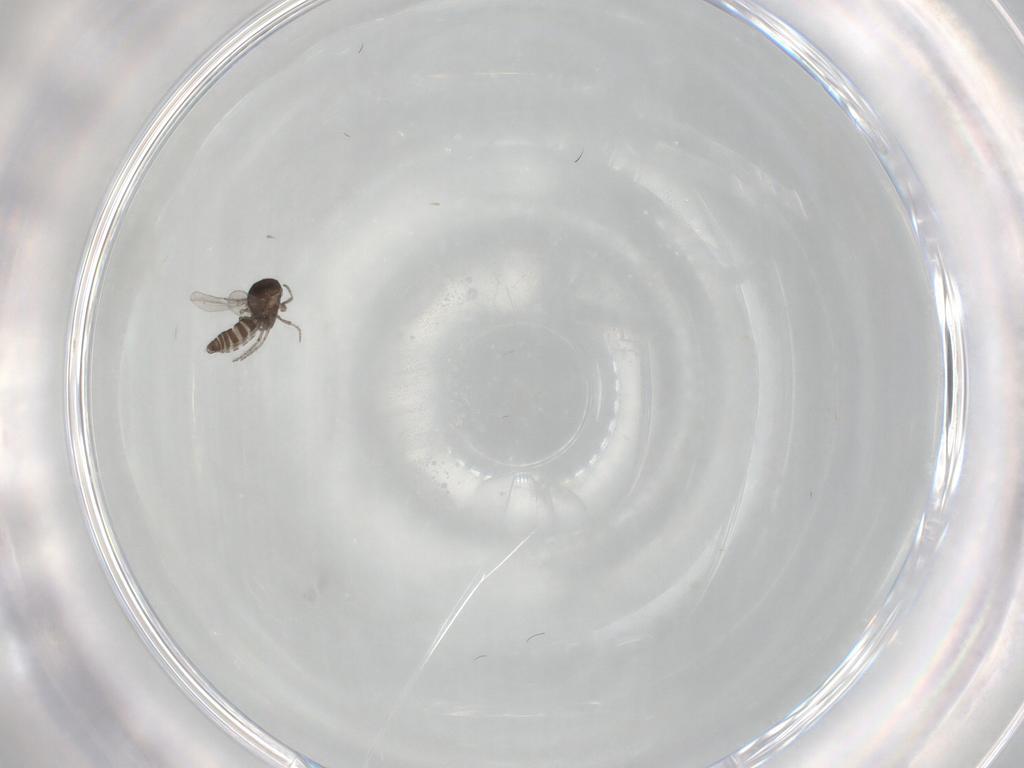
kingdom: Animalia
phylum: Arthropoda
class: Insecta
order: Diptera
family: Ceratopogonidae
